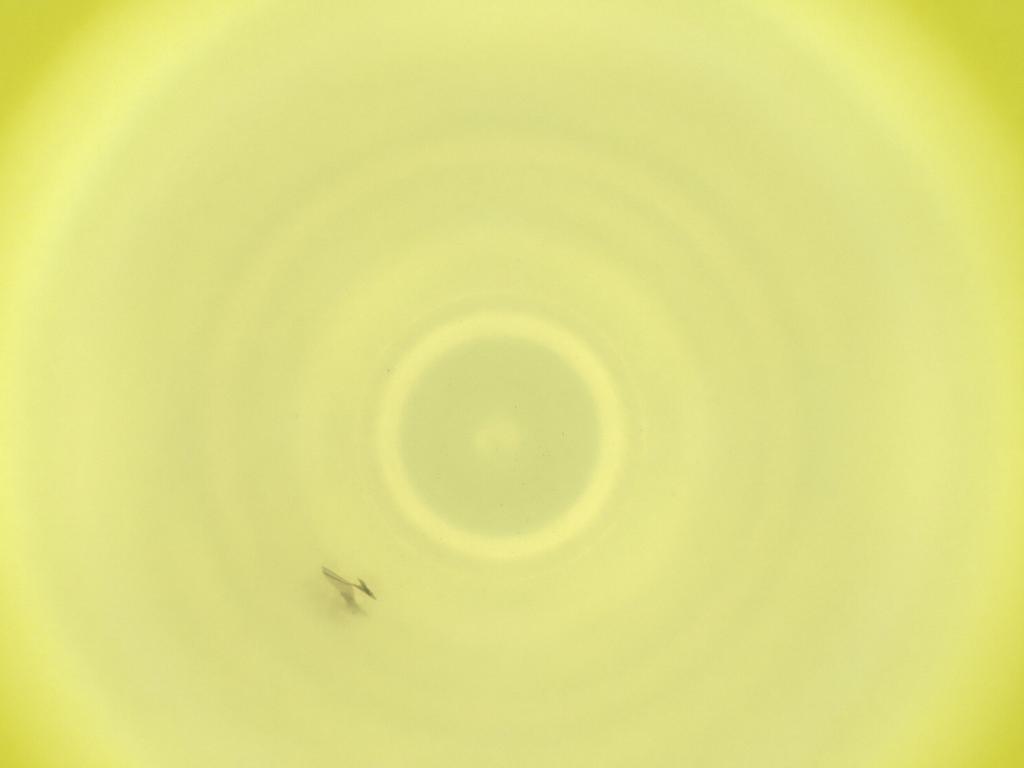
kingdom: Animalia
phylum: Arthropoda
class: Insecta
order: Diptera
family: Cecidomyiidae
